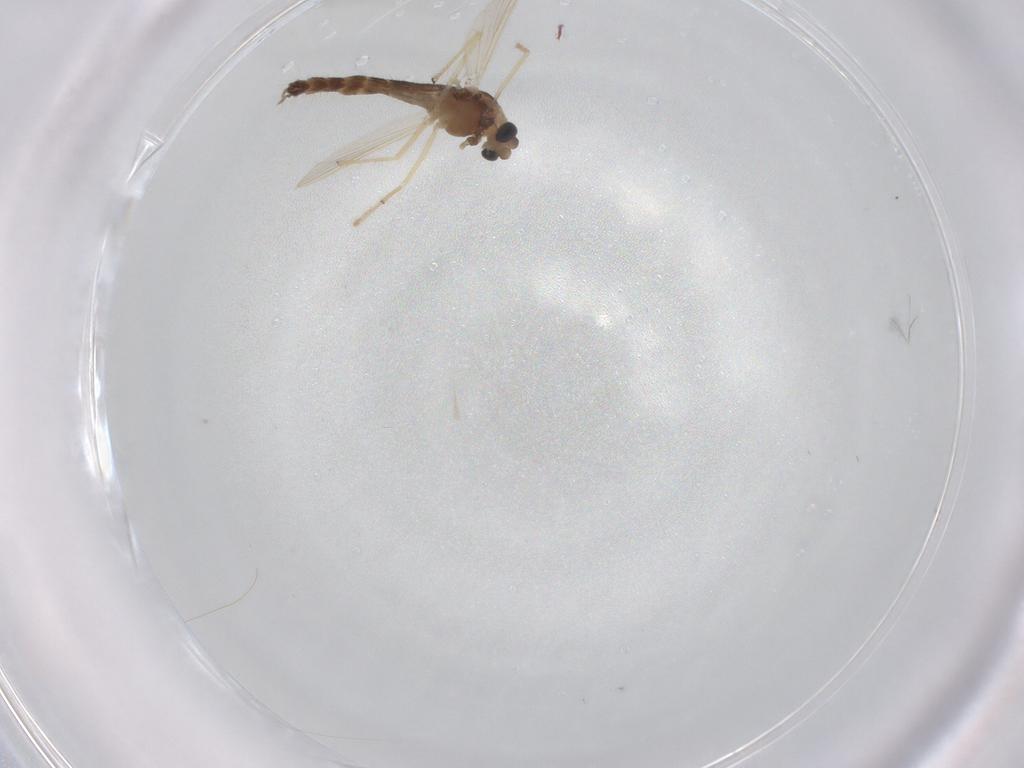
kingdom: Animalia
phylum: Arthropoda
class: Insecta
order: Diptera
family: Chironomidae
